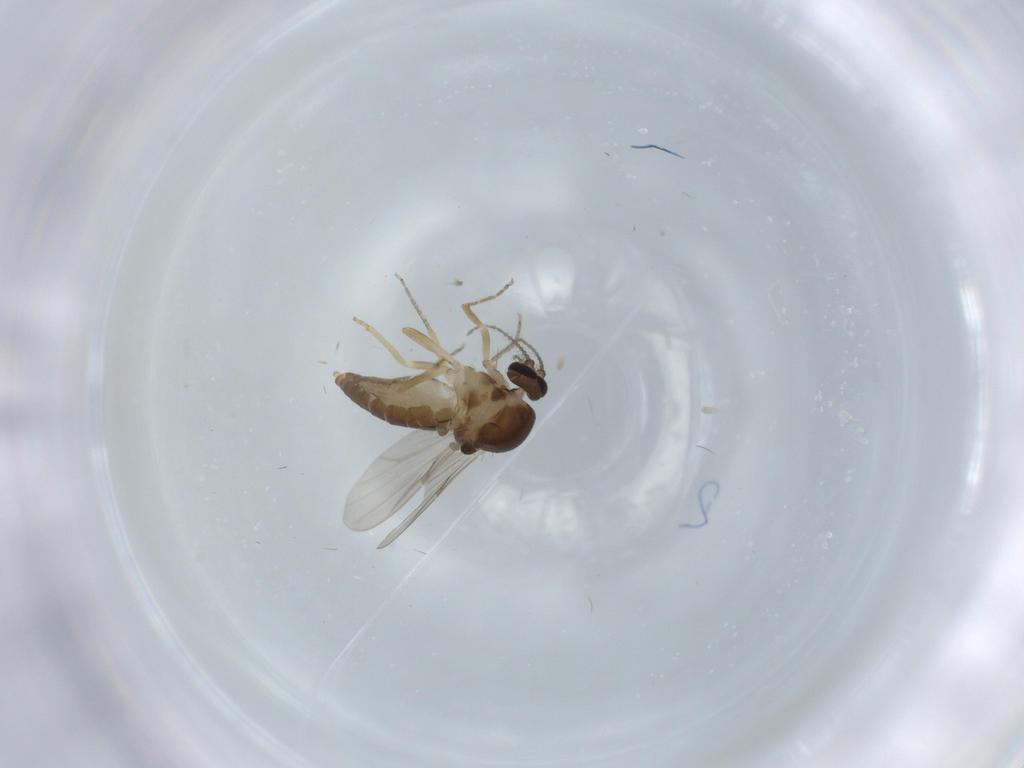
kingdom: Animalia
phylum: Arthropoda
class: Insecta
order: Diptera
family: Ceratopogonidae
